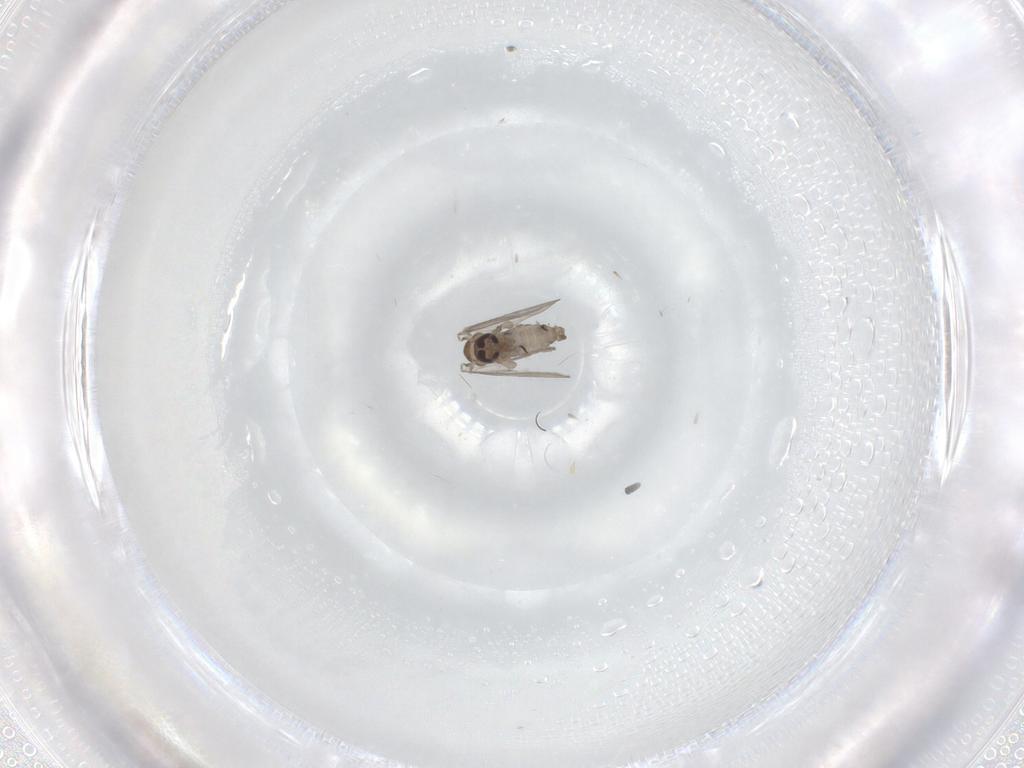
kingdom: Animalia
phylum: Arthropoda
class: Insecta
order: Diptera
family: Psychodidae
